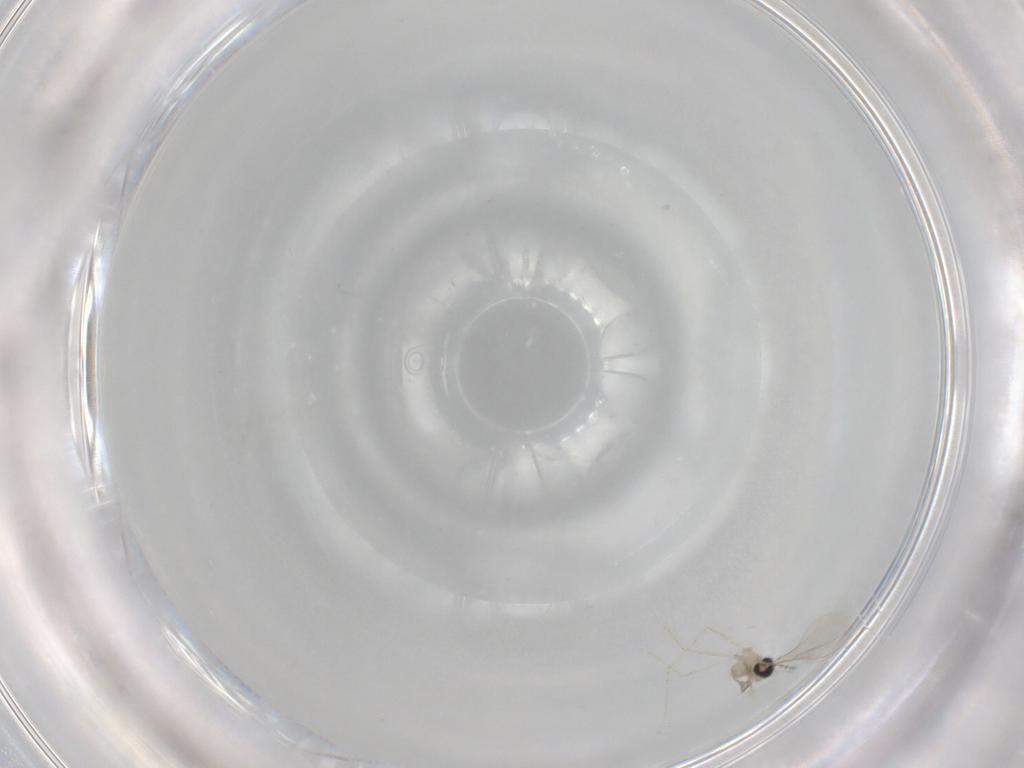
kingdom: Animalia
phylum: Arthropoda
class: Insecta
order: Diptera
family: Cecidomyiidae
